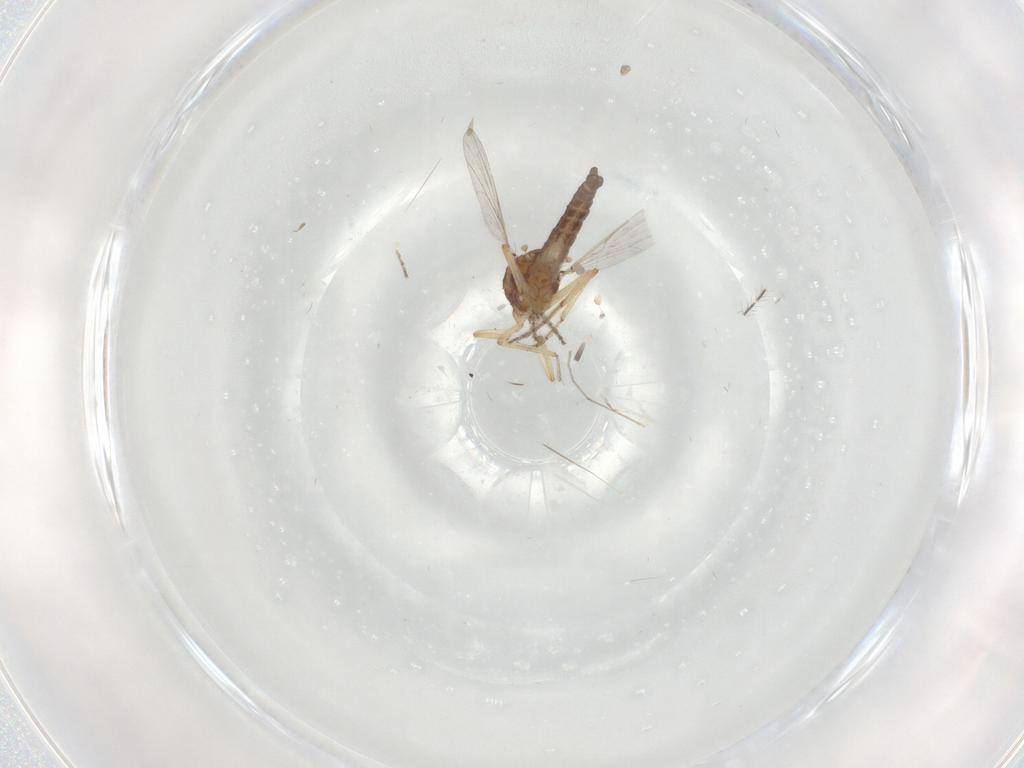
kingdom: Animalia
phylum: Arthropoda
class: Insecta
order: Diptera
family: Ceratopogonidae
